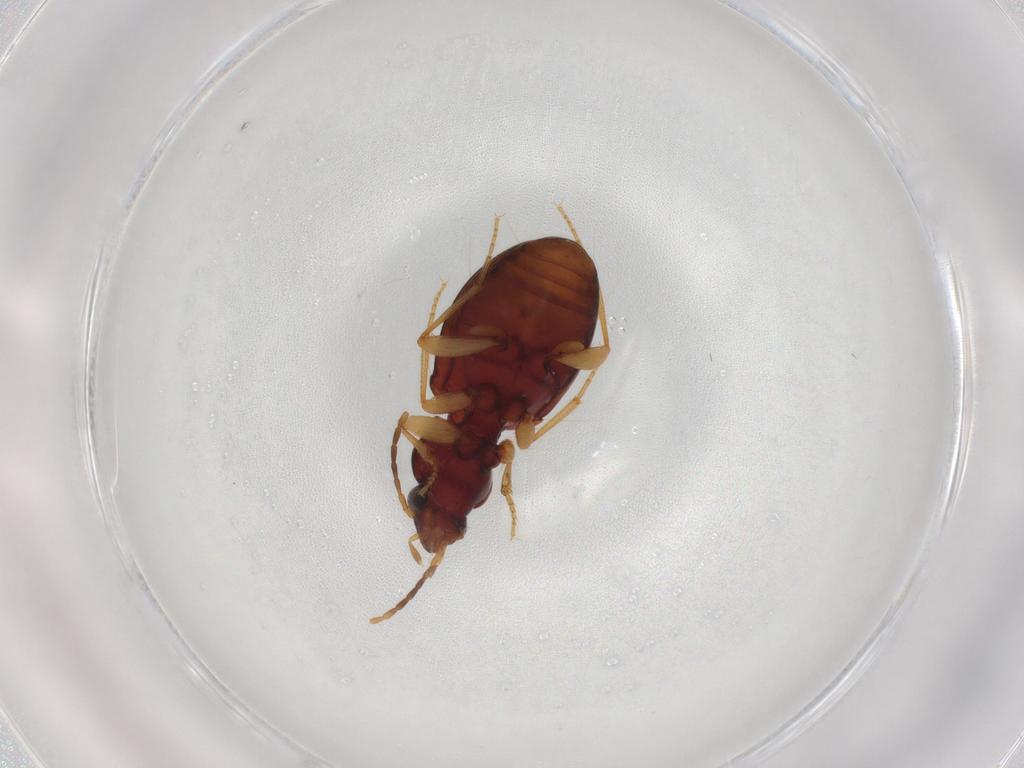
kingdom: Animalia
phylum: Arthropoda
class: Insecta
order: Coleoptera
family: Carabidae
